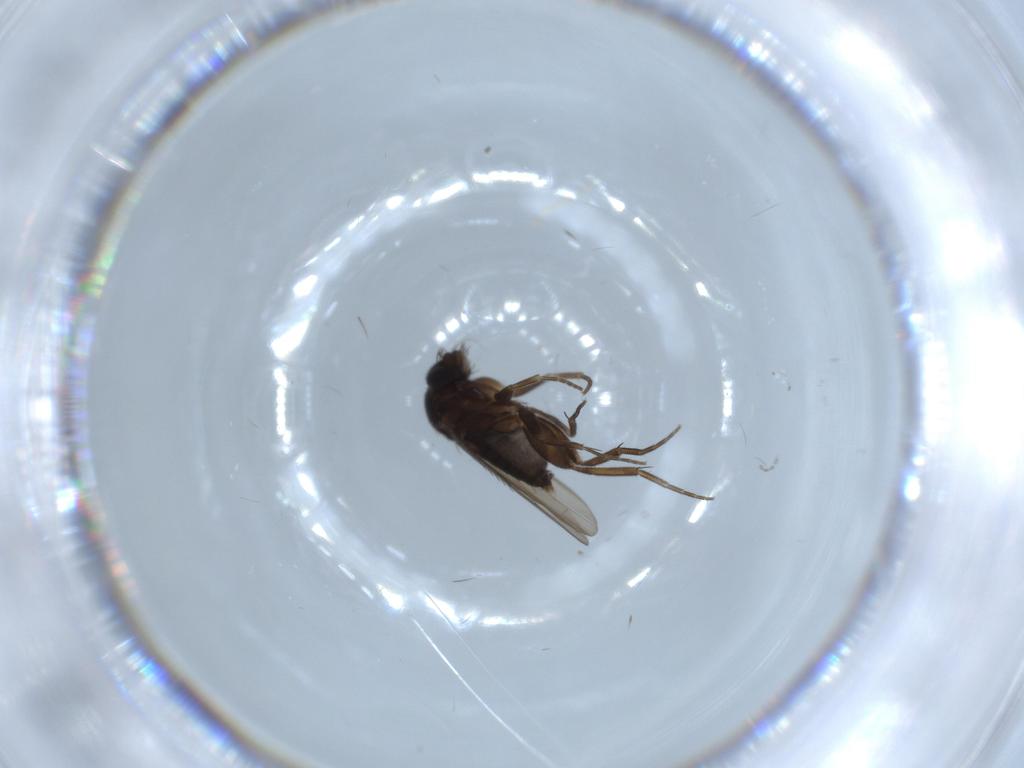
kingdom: Animalia
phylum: Arthropoda
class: Insecta
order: Diptera
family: Phoridae
